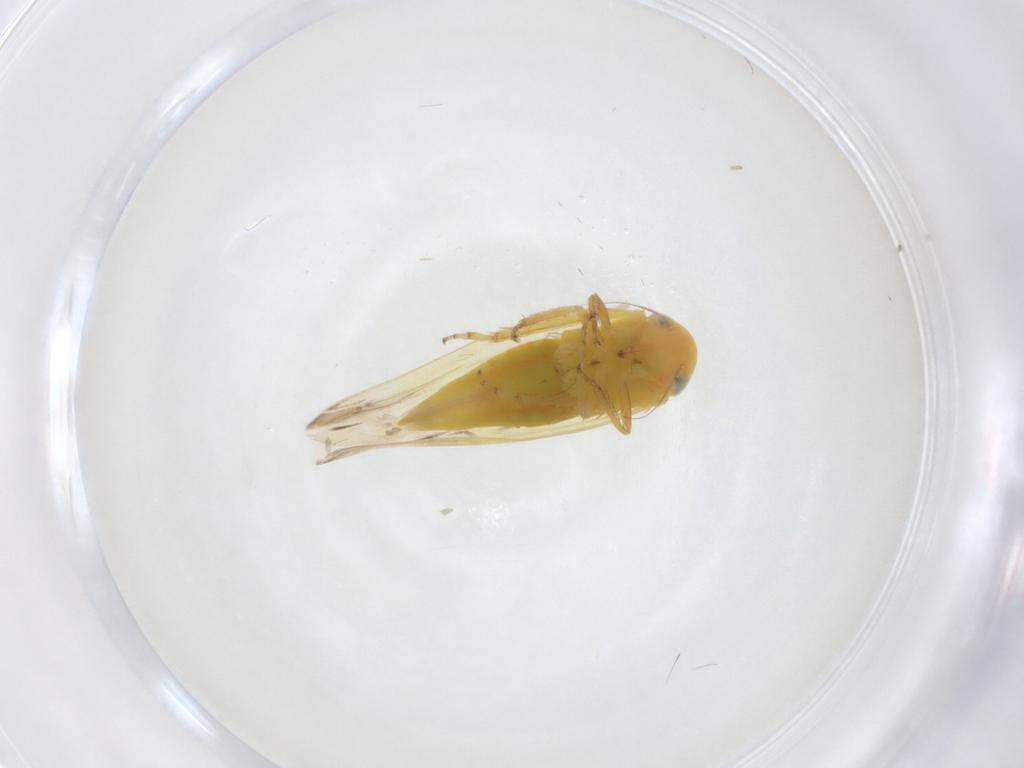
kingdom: Animalia
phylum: Arthropoda
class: Insecta
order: Hemiptera
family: Cicadellidae
